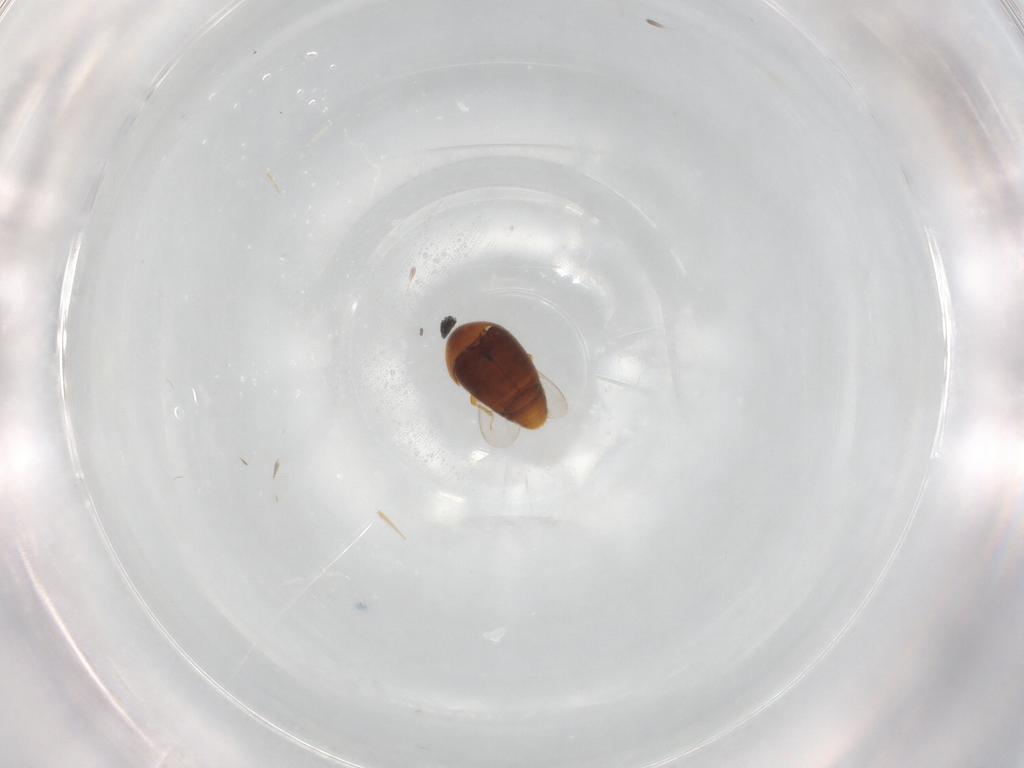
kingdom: Animalia
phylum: Arthropoda
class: Insecta
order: Coleoptera
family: Corylophidae
